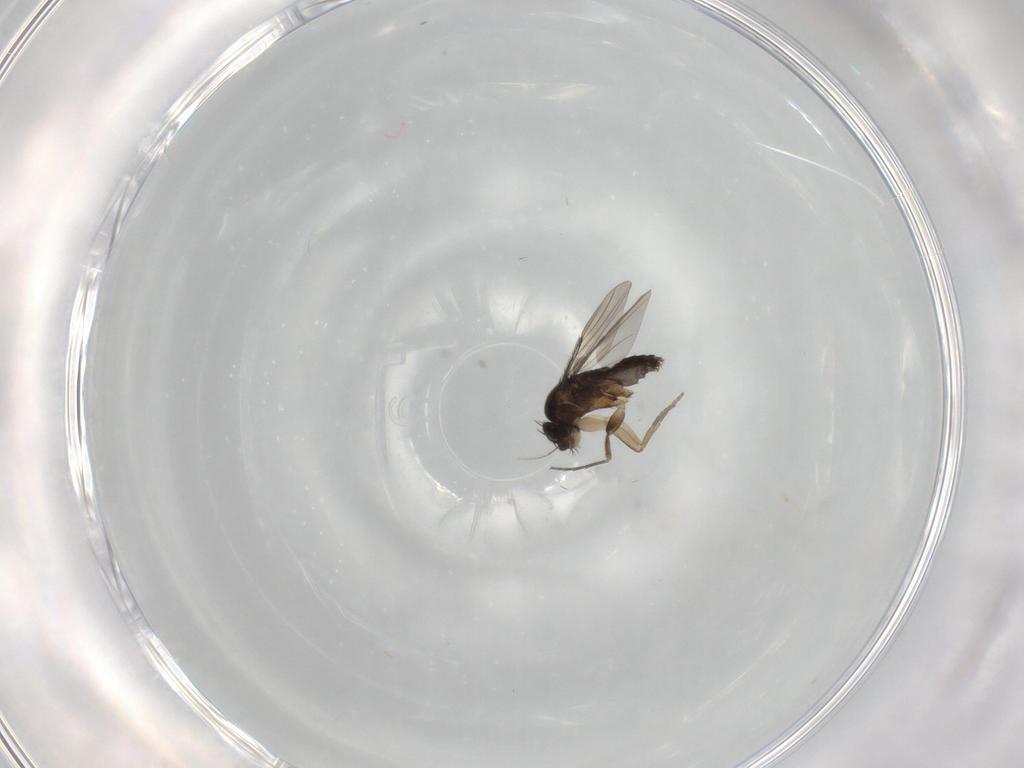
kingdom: Animalia
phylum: Arthropoda
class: Insecta
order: Diptera
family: Phoridae
